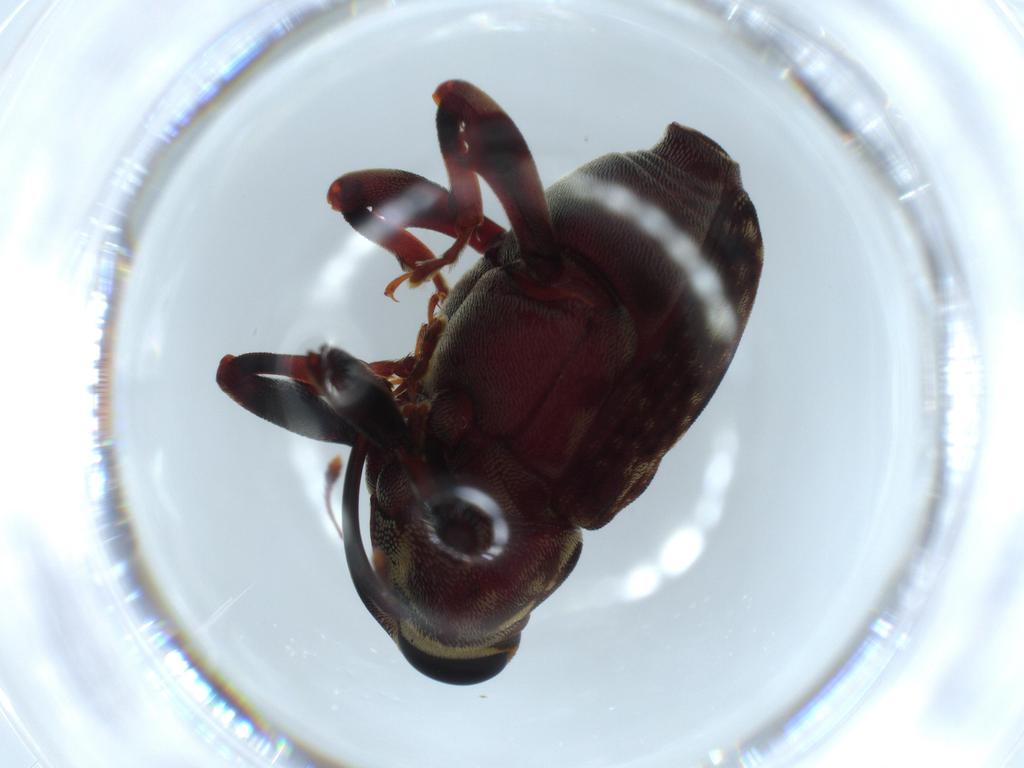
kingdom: Animalia
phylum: Arthropoda
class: Insecta
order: Coleoptera
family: Curculionidae
